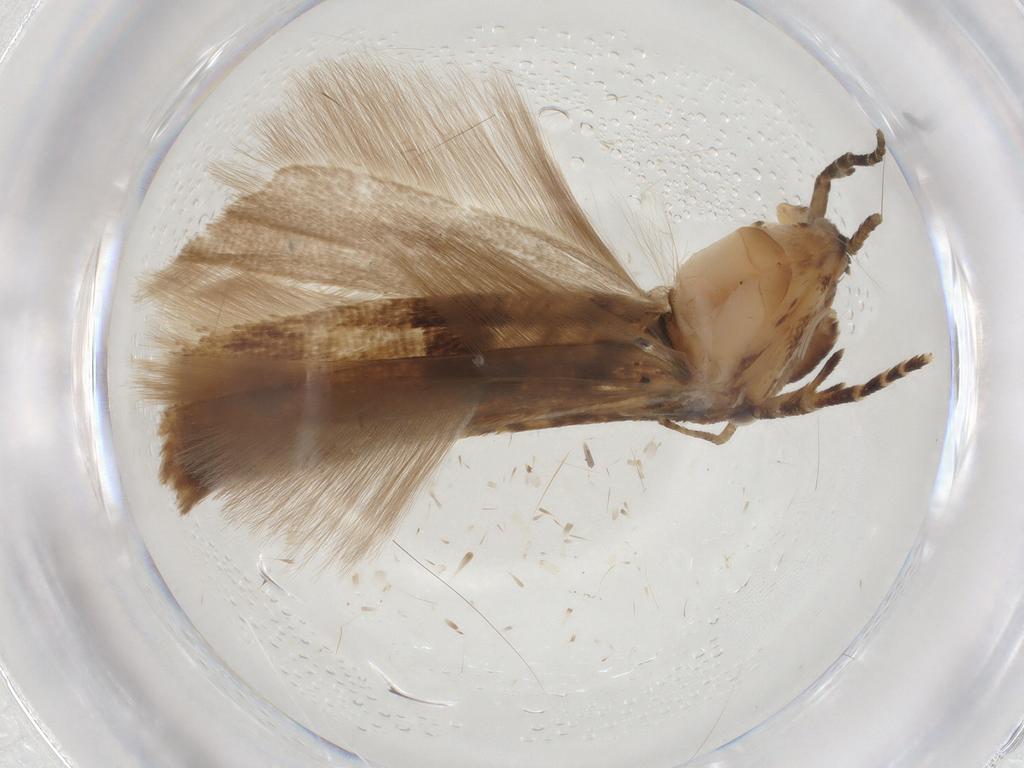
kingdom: Animalia
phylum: Arthropoda
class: Insecta
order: Lepidoptera
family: Gelechiidae
